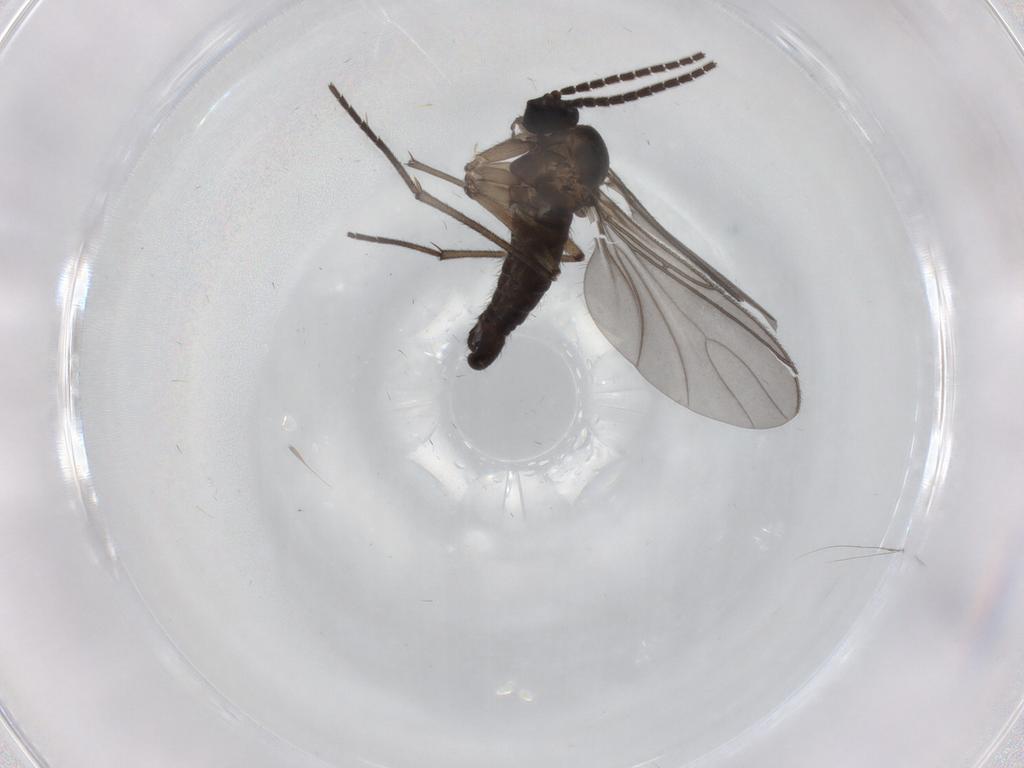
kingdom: Animalia
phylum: Arthropoda
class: Insecta
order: Diptera
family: Sciaridae
